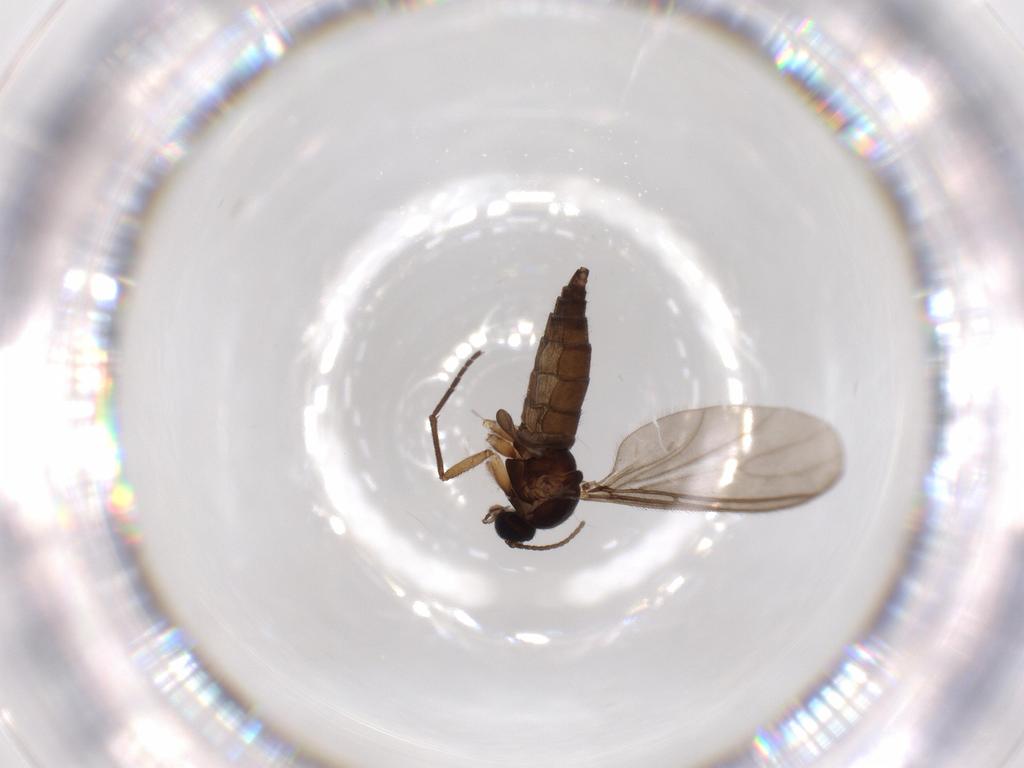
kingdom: Animalia
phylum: Arthropoda
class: Insecta
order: Diptera
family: Sciaridae
